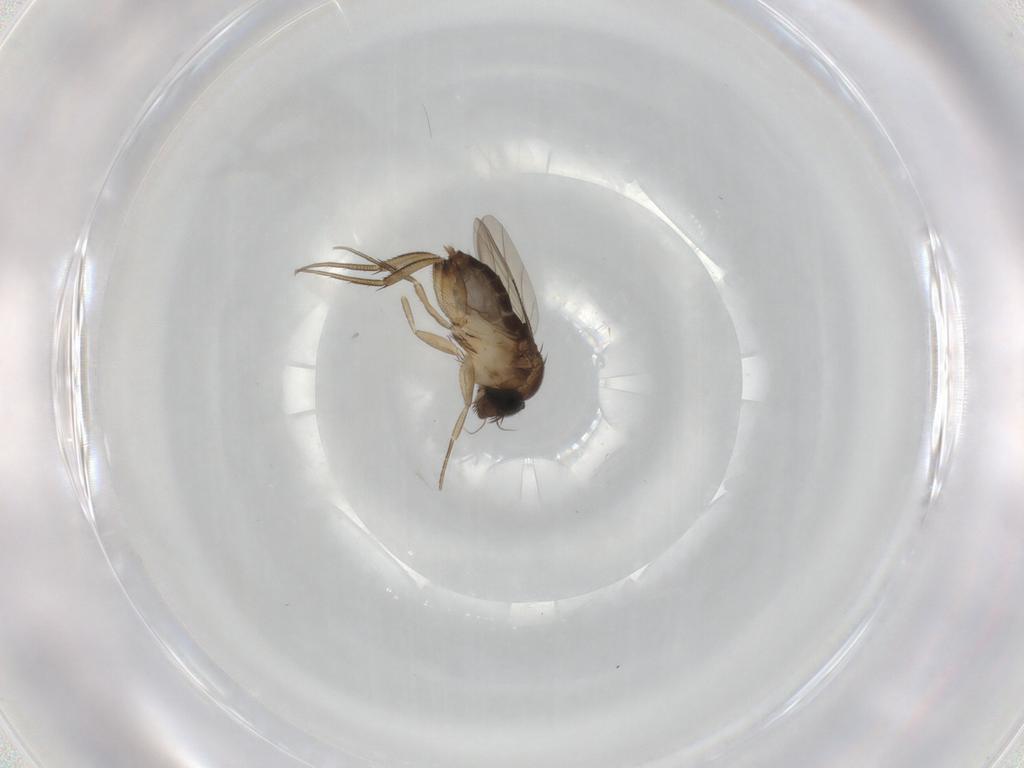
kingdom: Animalia
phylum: Arthropoda
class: Insecta
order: Diptera
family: Phoridae
